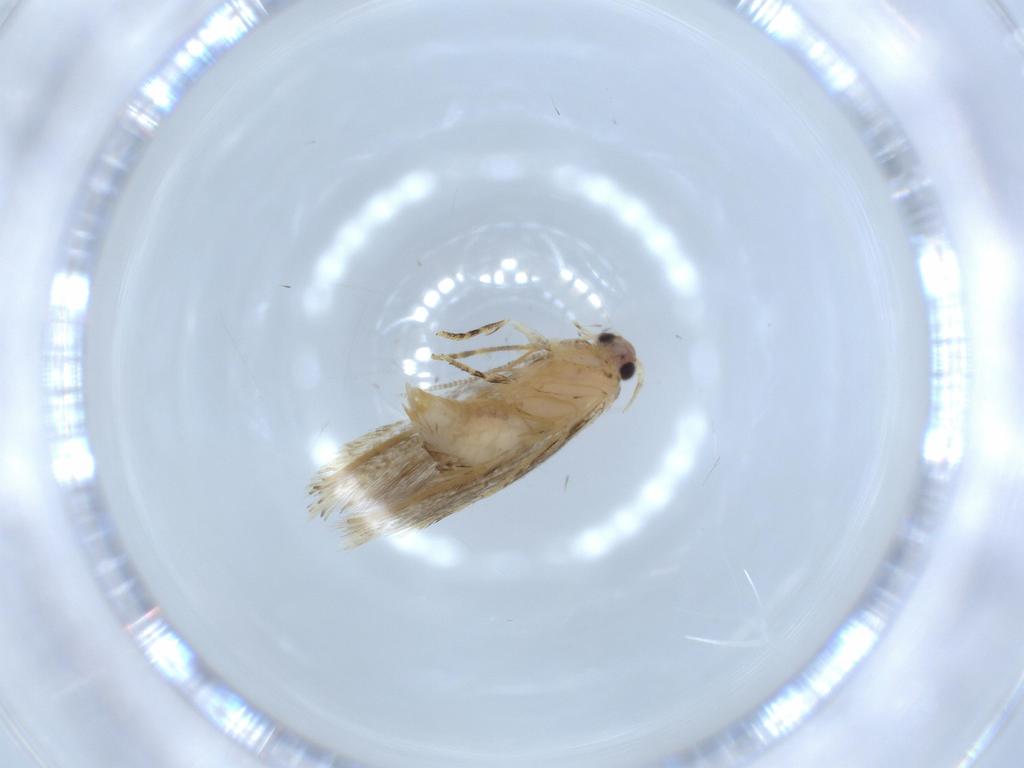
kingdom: Animalia
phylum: Arthropoda
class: Insecta
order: Lepidoptera
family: Tineidae
